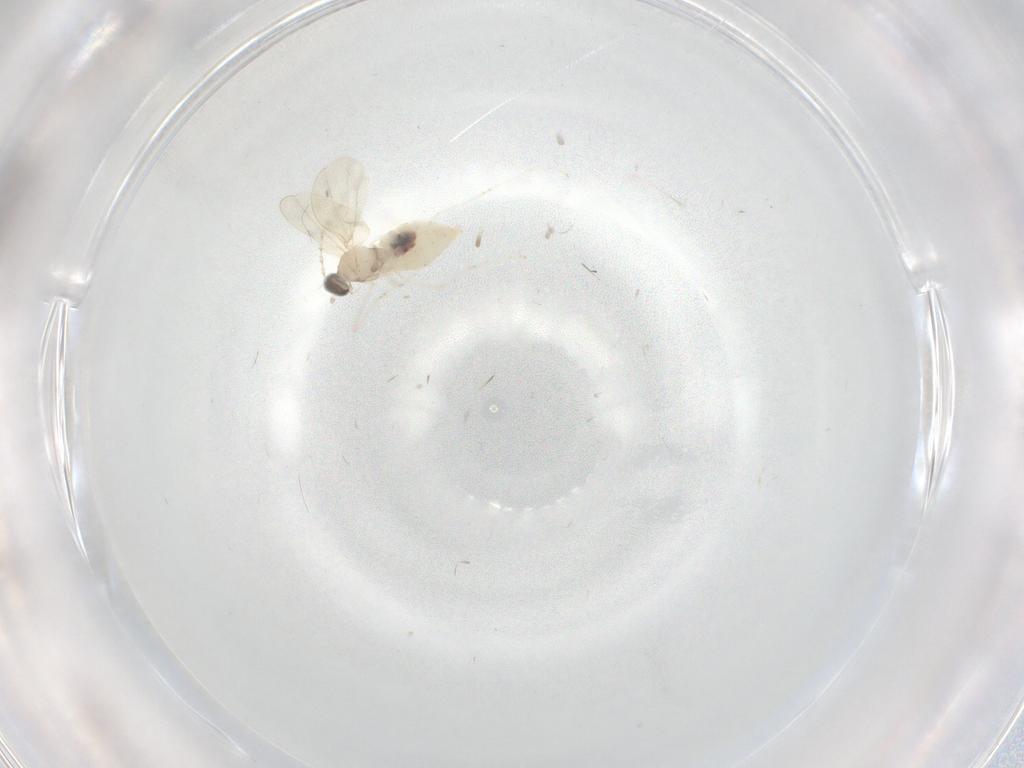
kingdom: Animalia
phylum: Arthropoda
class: Insecta
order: Diptera
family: Cecidomyiidae
